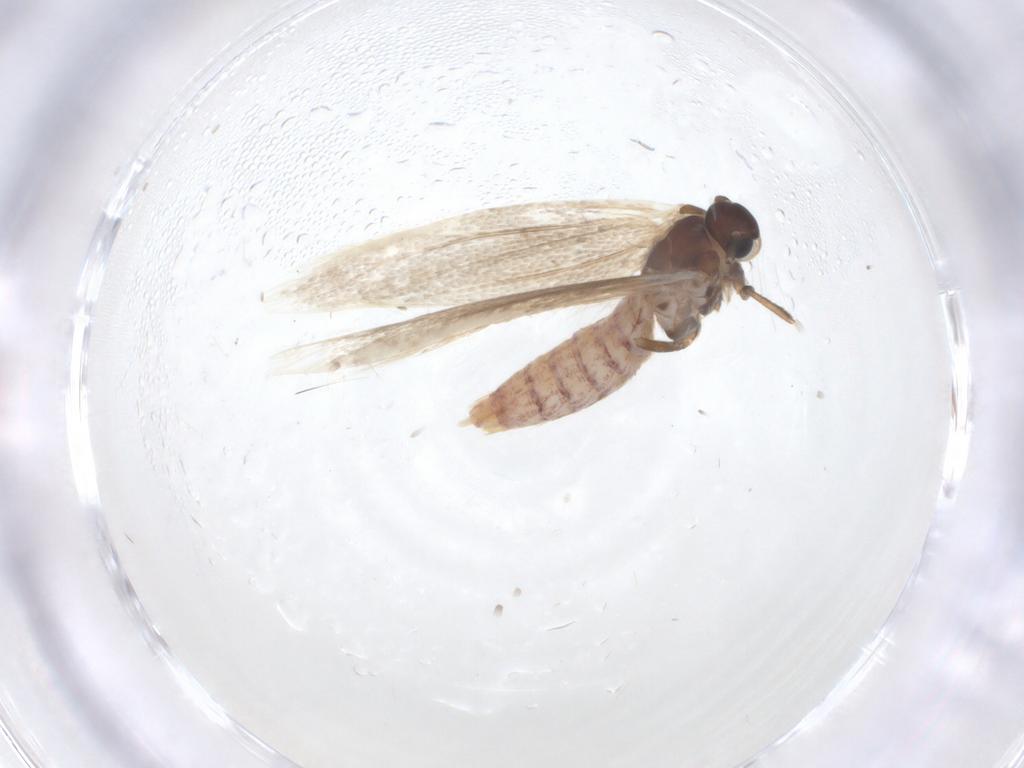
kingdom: Animalia
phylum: Arthropoda
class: Insecta
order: Lepidoptera
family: Scythrididae
